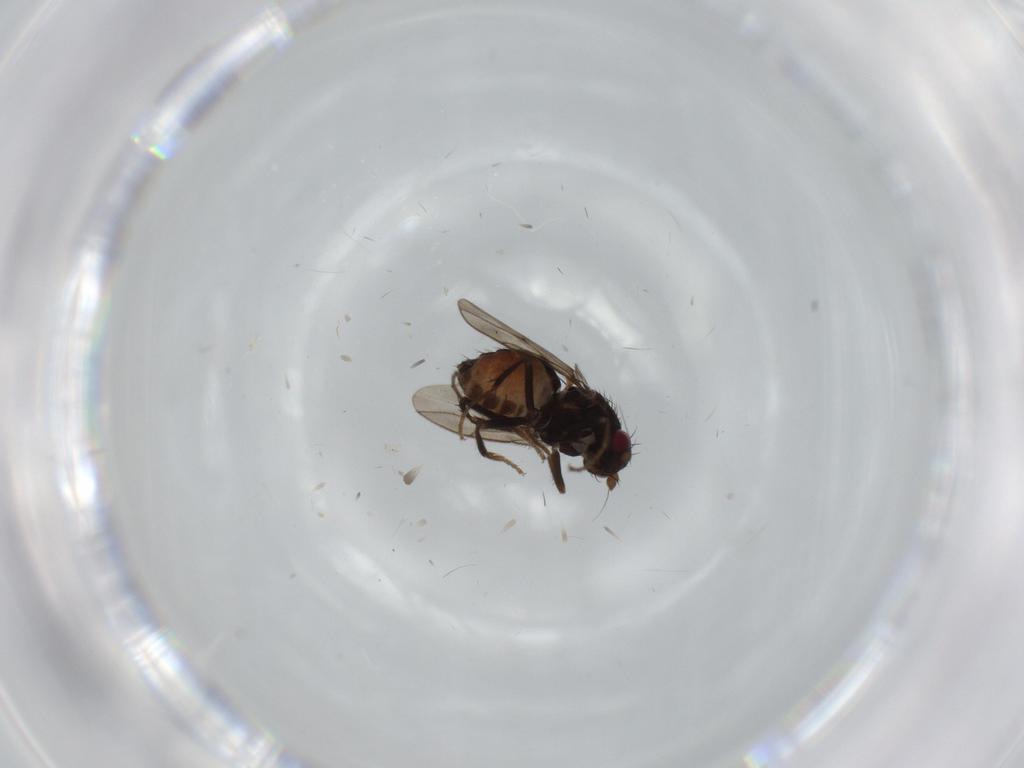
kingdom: Animalia
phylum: Arthropoda
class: Insecta
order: Diptera
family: Sphaeroceridae
